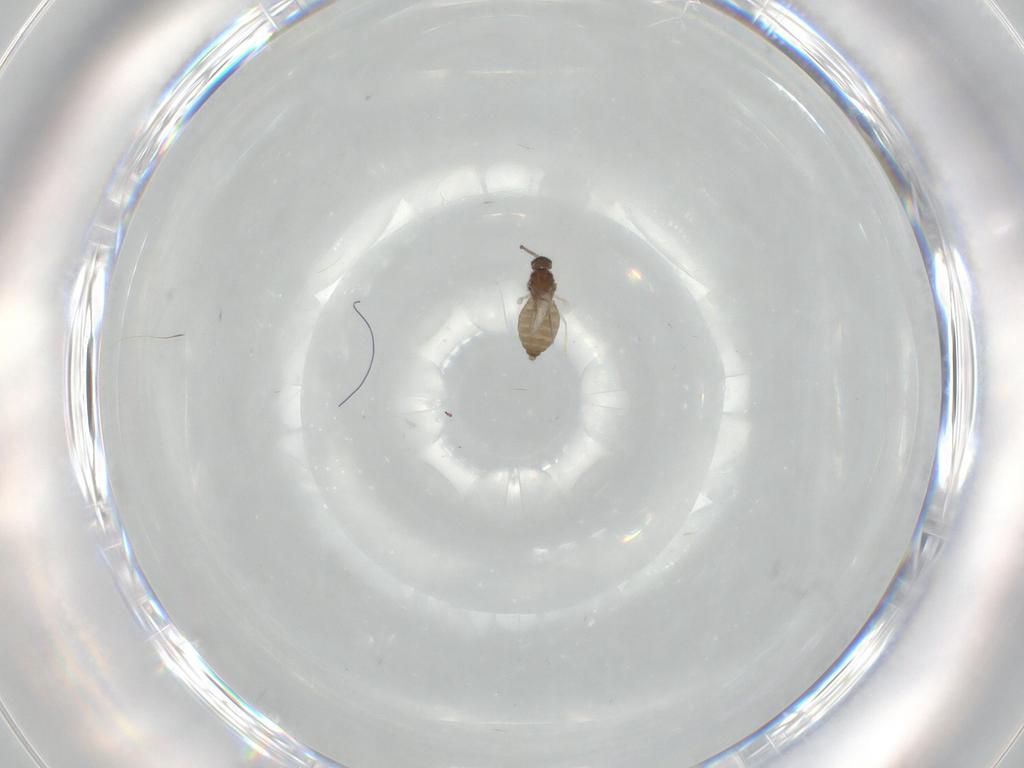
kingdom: Animalia
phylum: Arthropoda
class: Insecta
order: Diptera
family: Cecidomyiidae
